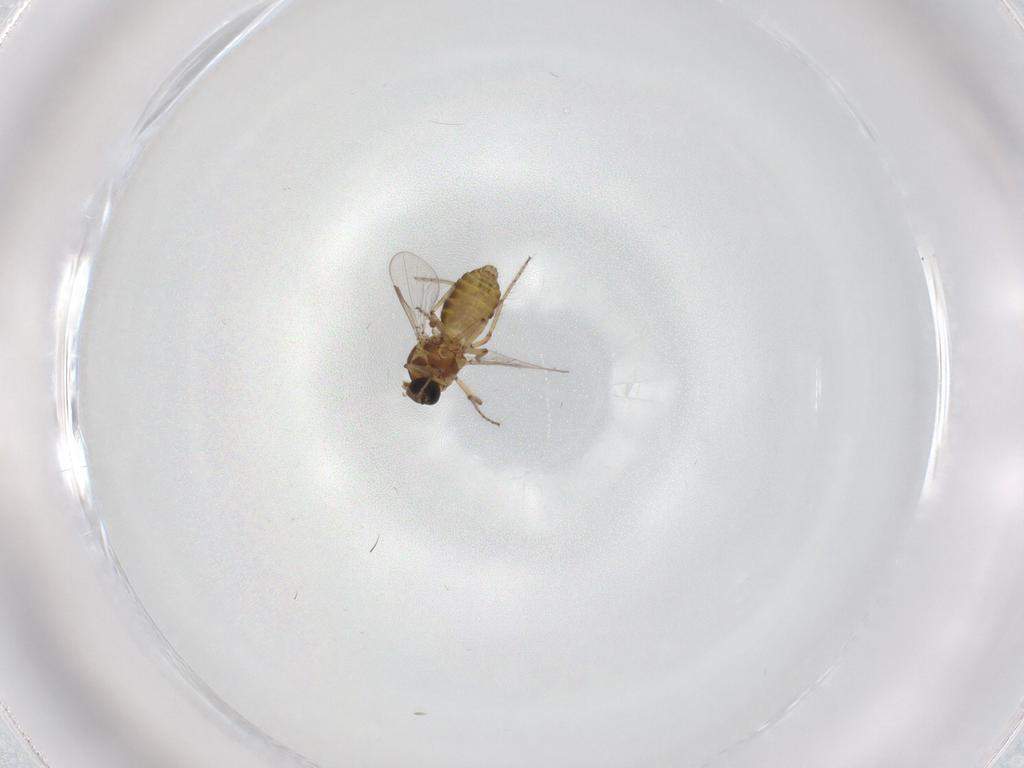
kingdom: Animalia
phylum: Arthropoda
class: Insecta
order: Diptera
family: Ceratopogonidae
